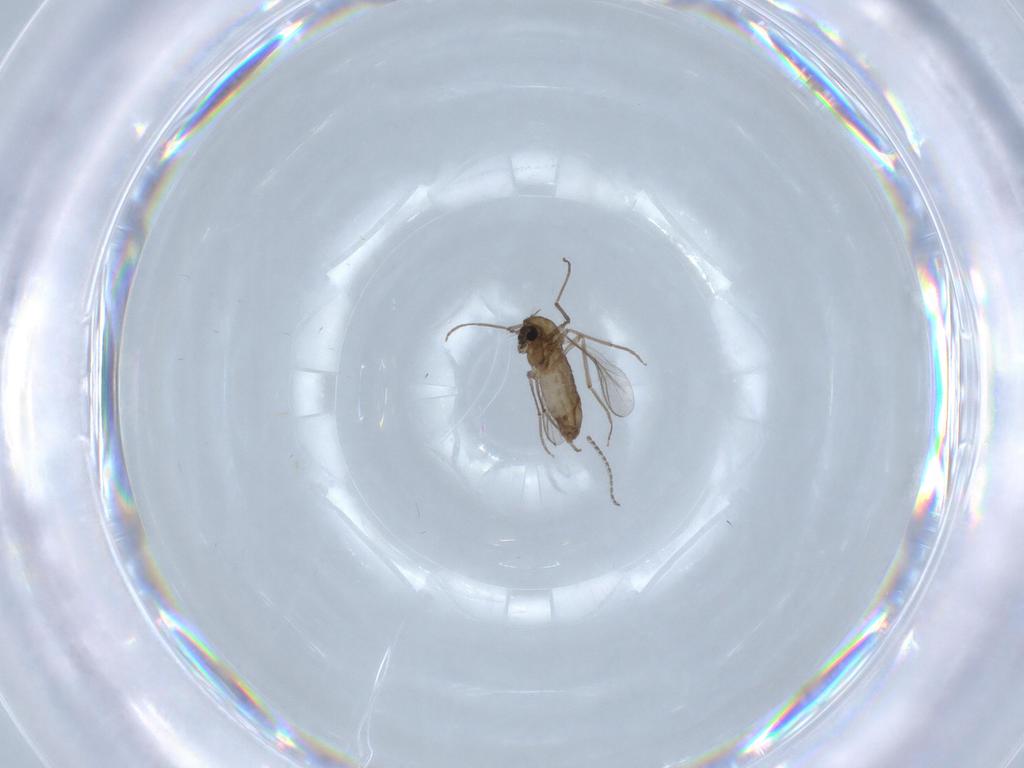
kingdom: Animalia
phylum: Arthropoda
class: Insecta
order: Diptera
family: Chironomidae
